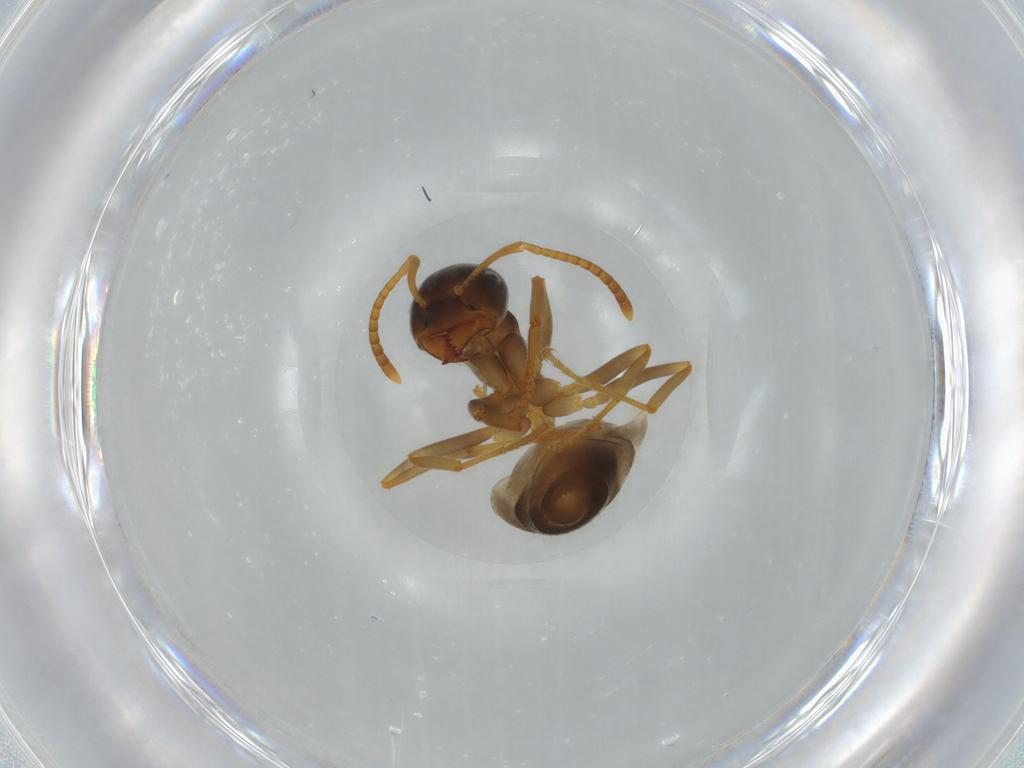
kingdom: Animalia
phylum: Arthropoda
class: Insecta
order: Hymenoptera
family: Formicidae
